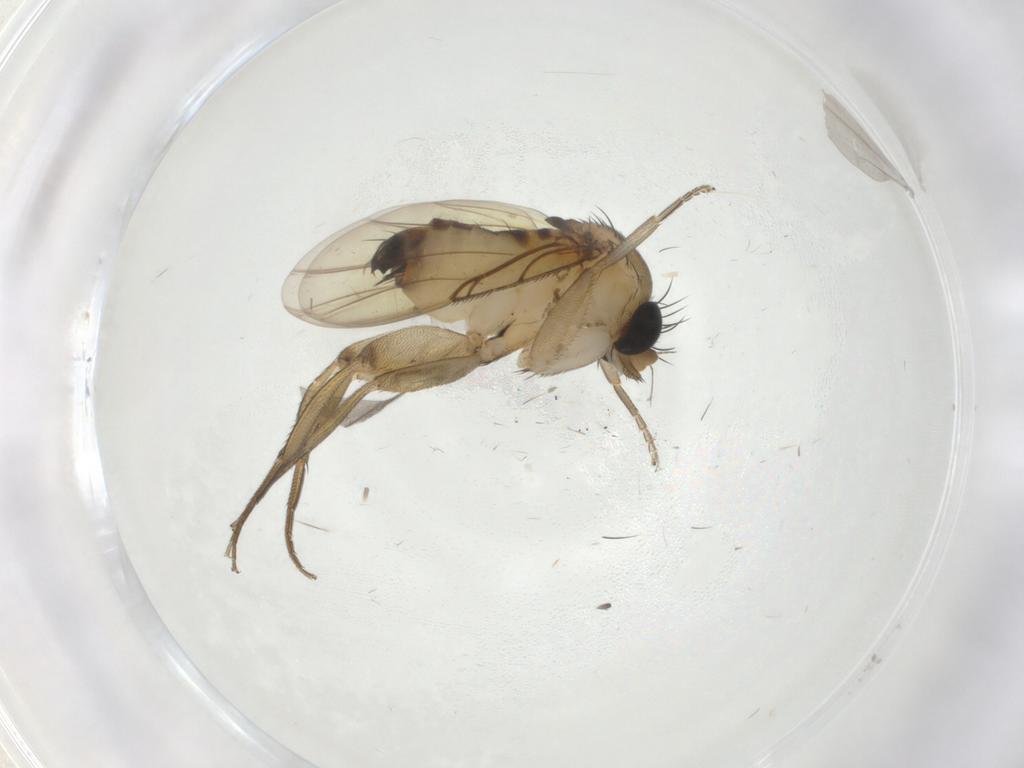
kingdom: Animalia
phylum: Arthropoda
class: Insecta
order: Diptera
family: Phoridae
